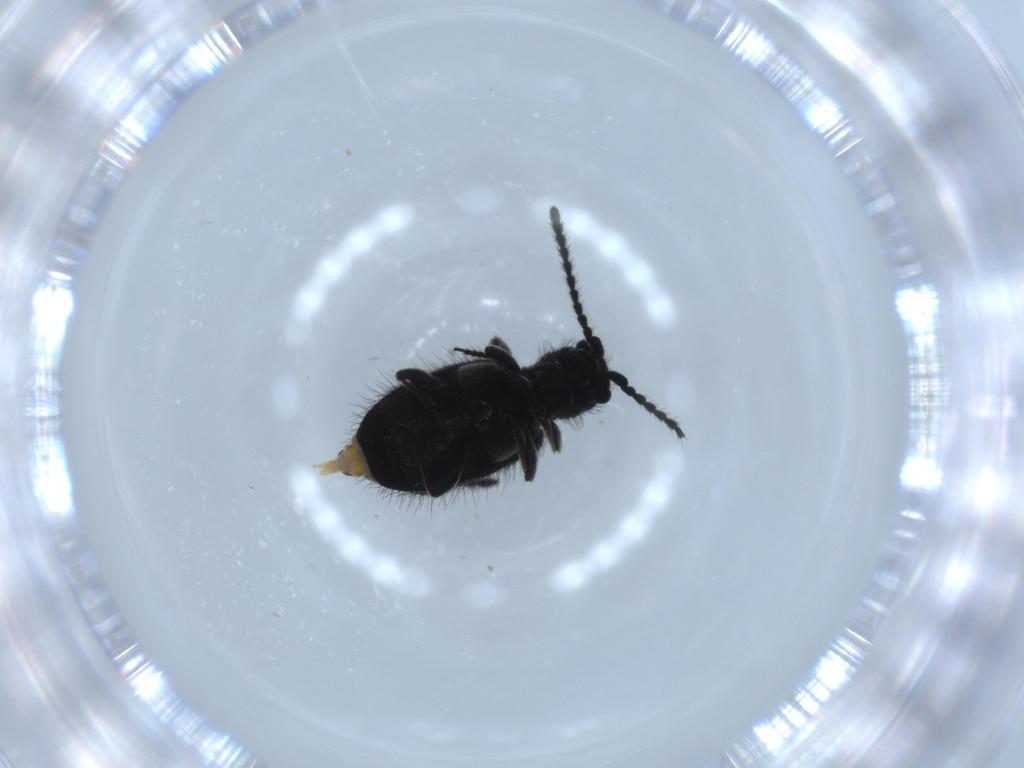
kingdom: Animalia
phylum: Arthropoda
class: Insecta
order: Coleoptera
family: Ptinidae
